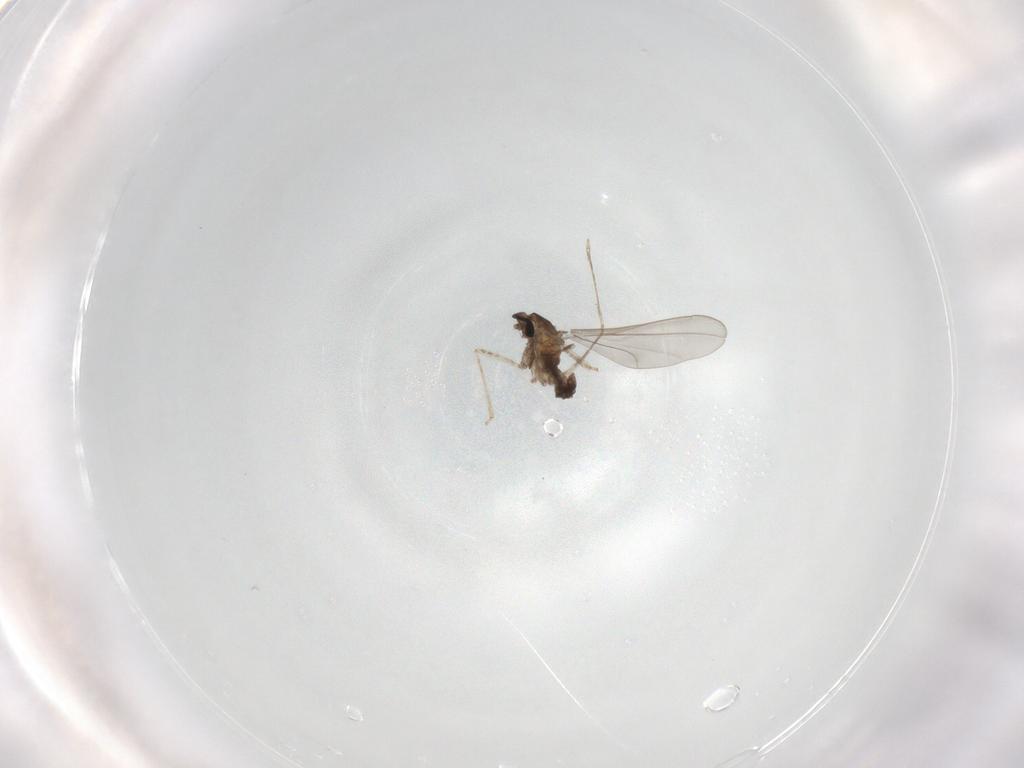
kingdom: Animalia
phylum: Arthropoda
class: Insecta
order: Diptera
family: Cecidomyiidae
